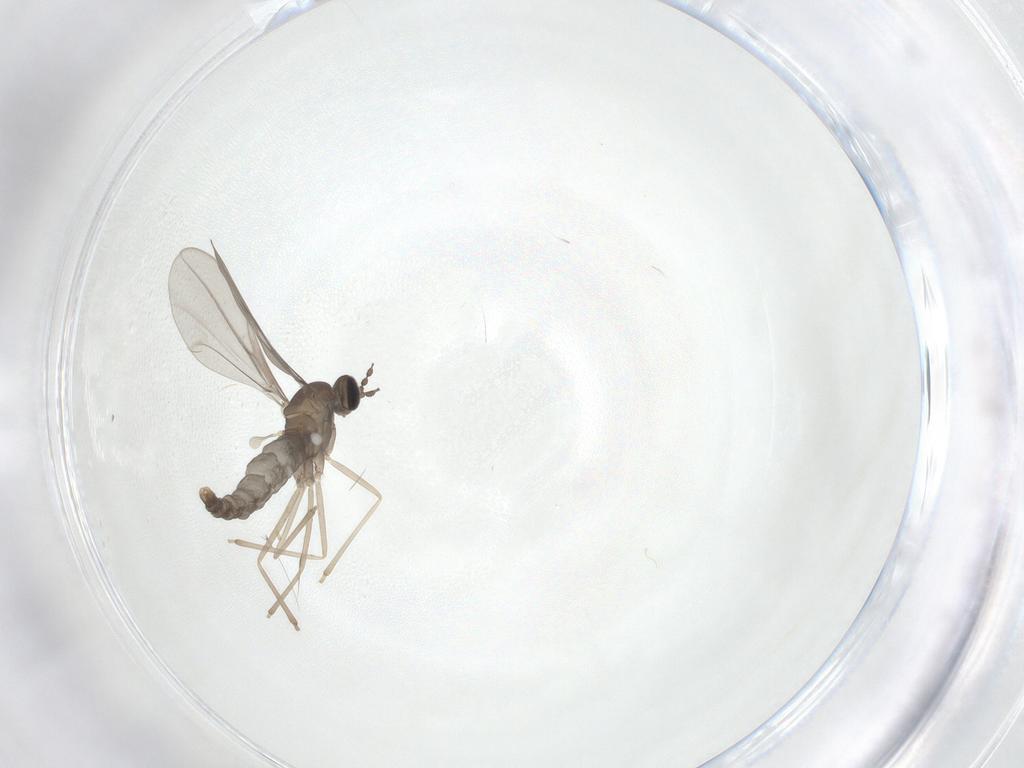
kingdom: Animalia
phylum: Arthropoda
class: Insecta
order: Diptera
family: Cecidomyiidae
